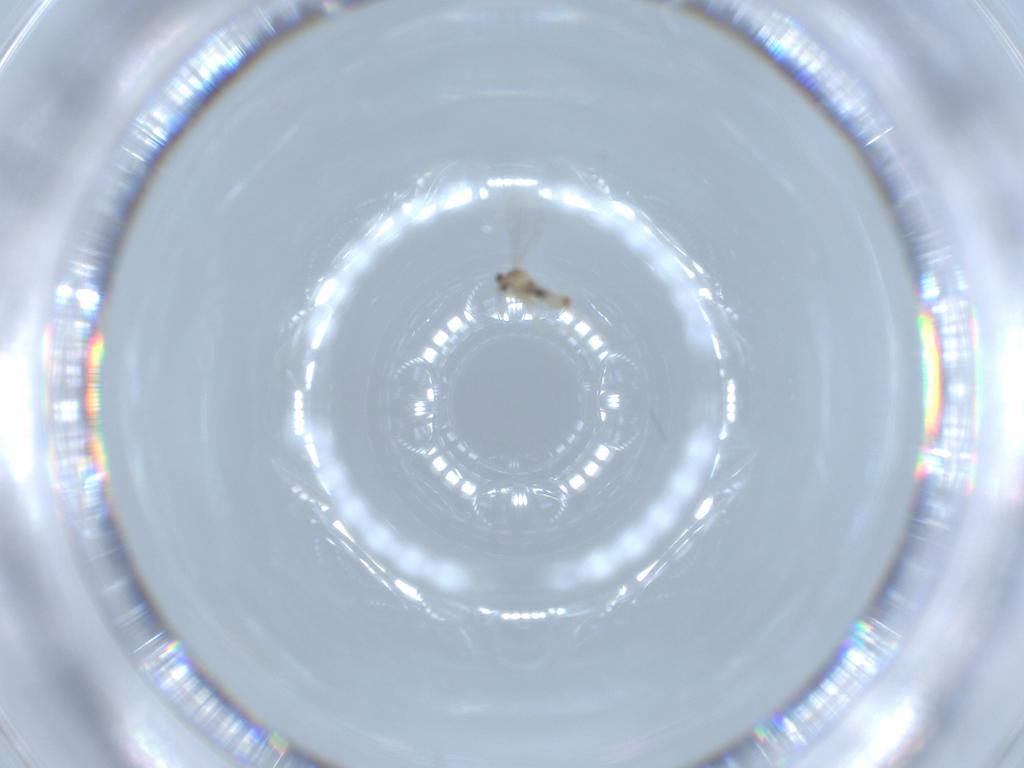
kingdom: Animalia
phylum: Arthropoda
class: Insecta
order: Diptera
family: Cecidomyiidae
